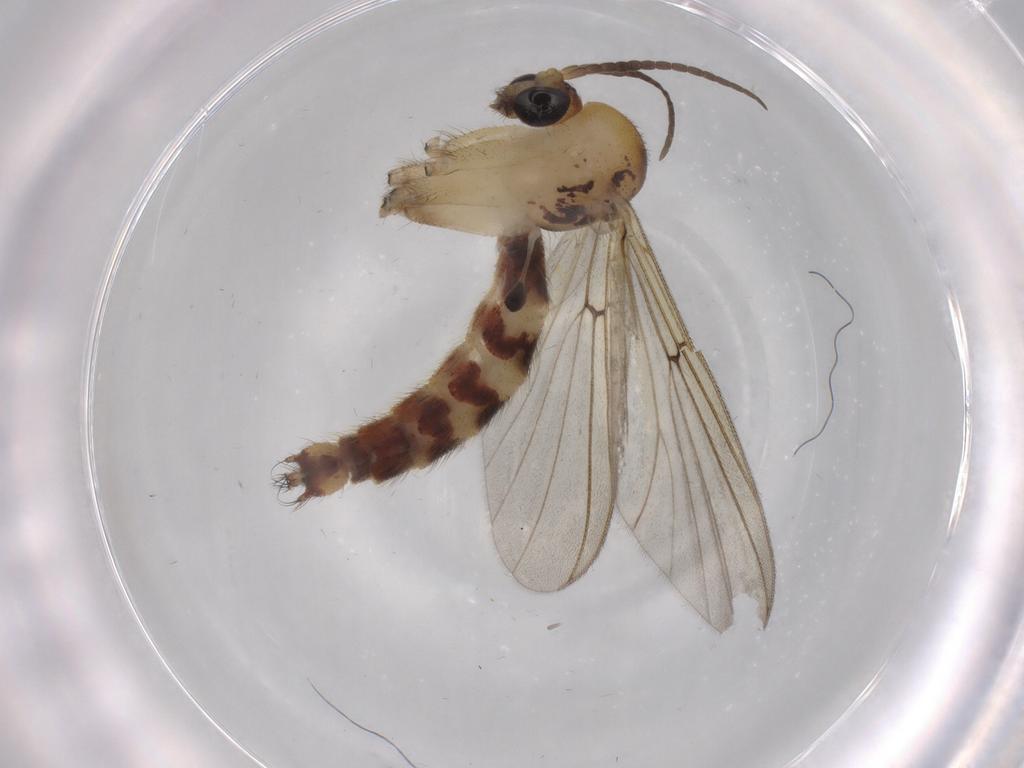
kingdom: Animalia
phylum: Arthropoda
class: Insecta
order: Diptera
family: Cecidomyiidae
